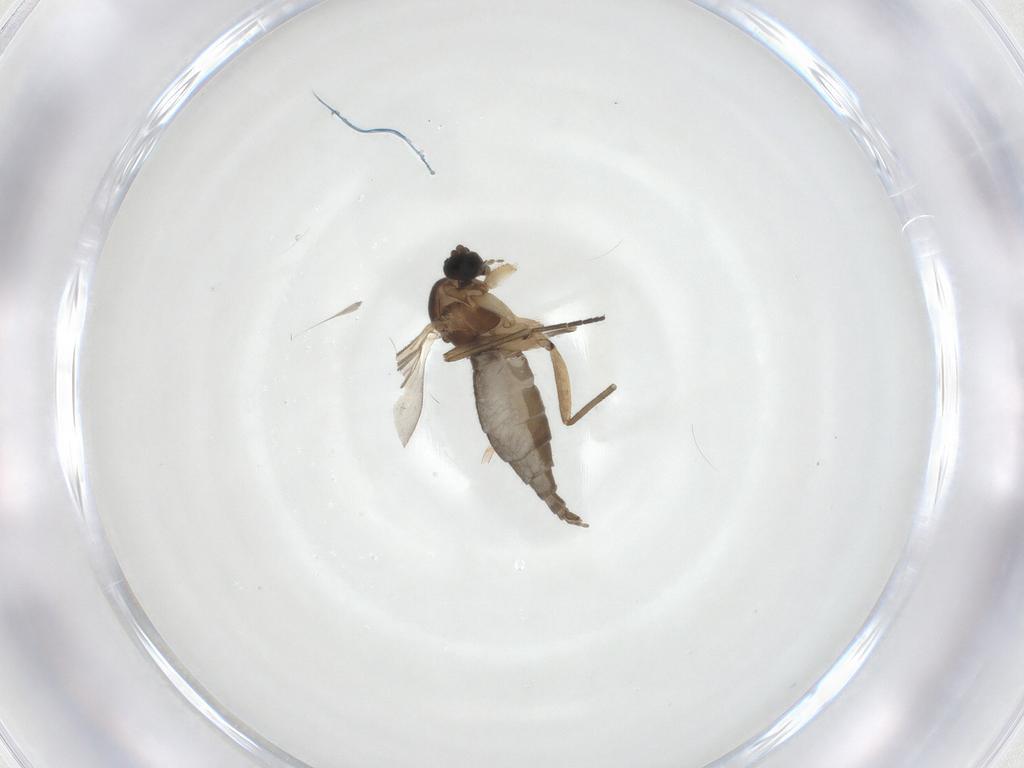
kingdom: Animalia
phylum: Arthropoda
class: Insecta
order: Diptera
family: Sciaridae
